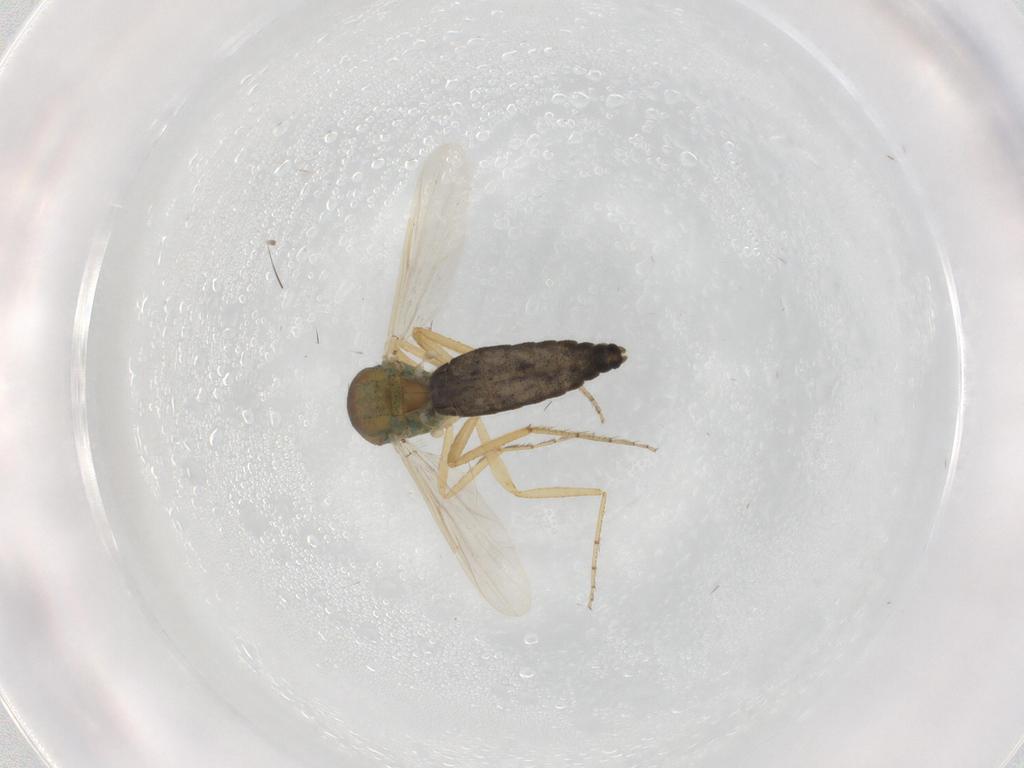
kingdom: Animalia
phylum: Arthropoda
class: Insecta
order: Diptera
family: Ceratopogonidae
